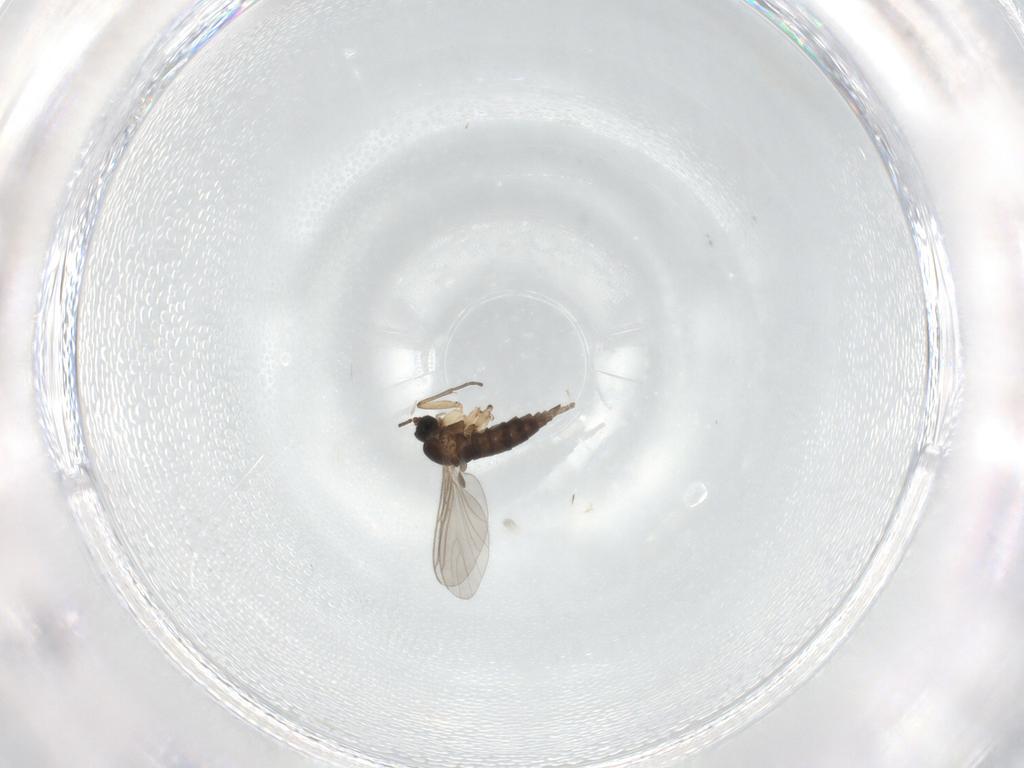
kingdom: Animalia
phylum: Arthropoda
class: Insecta
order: Diptera
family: Sciaridae
